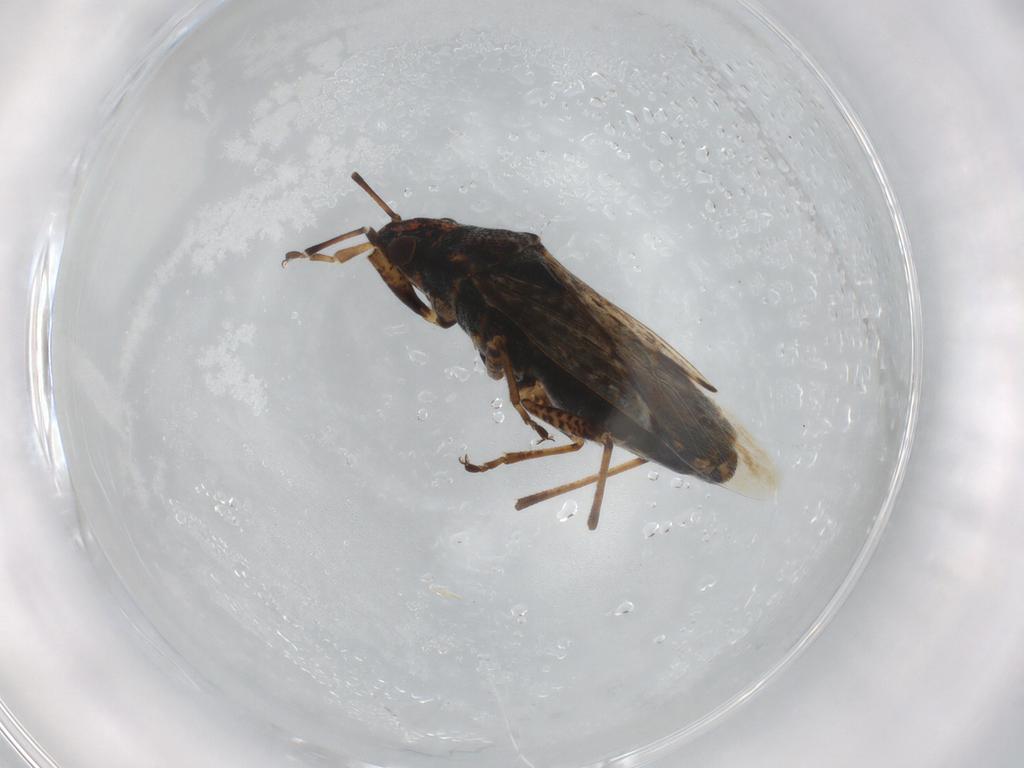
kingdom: Animalia
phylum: Arthropoda
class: Insecta
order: Hemiptera
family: Lygaeidae
